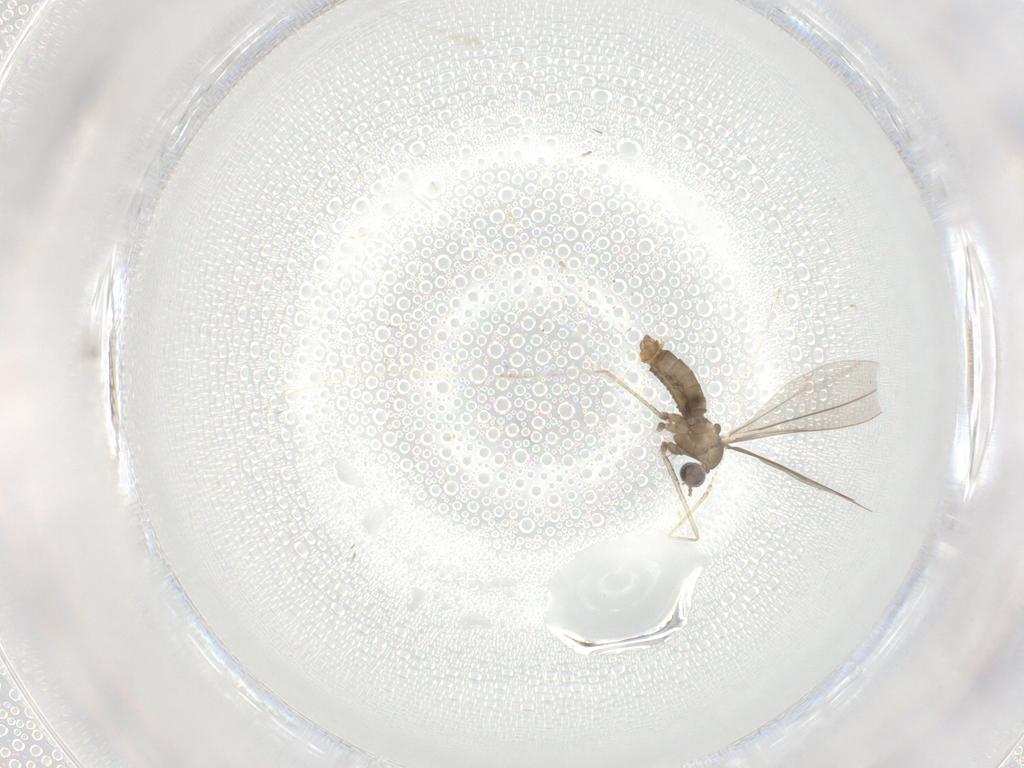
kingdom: Animalia
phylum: Arthropoda
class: Insecta
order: Diptera
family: Cecidomyiidae
